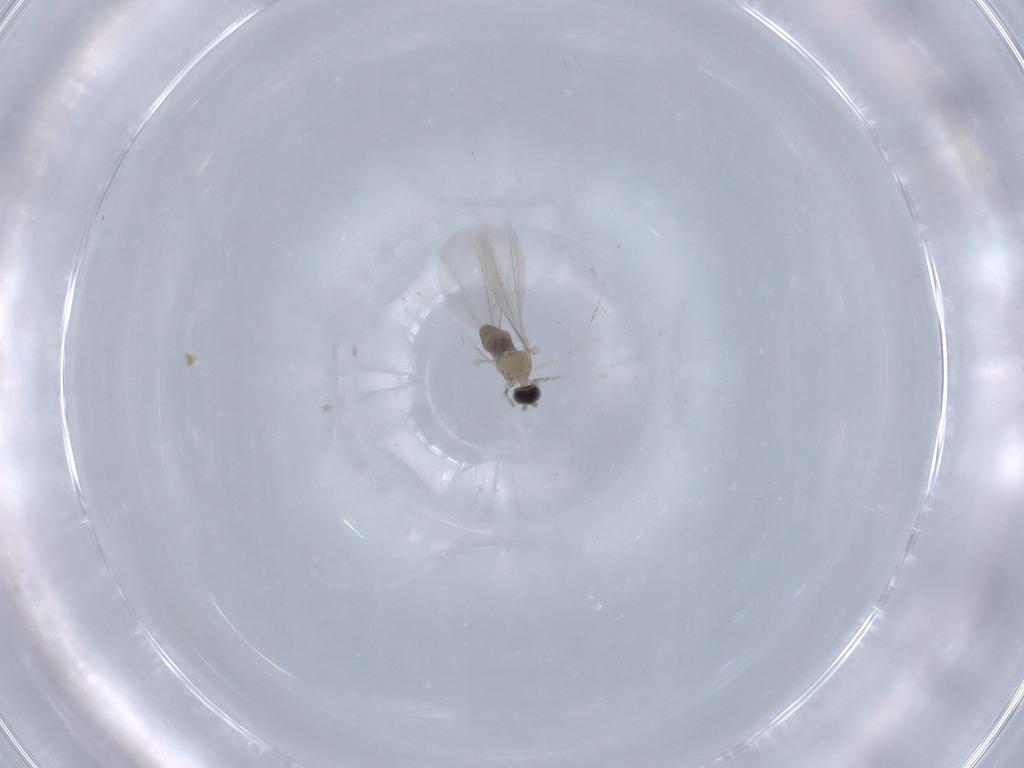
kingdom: Animalia
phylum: Arthropoda
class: Insecta
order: Diptera
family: Cecidomyiidae
